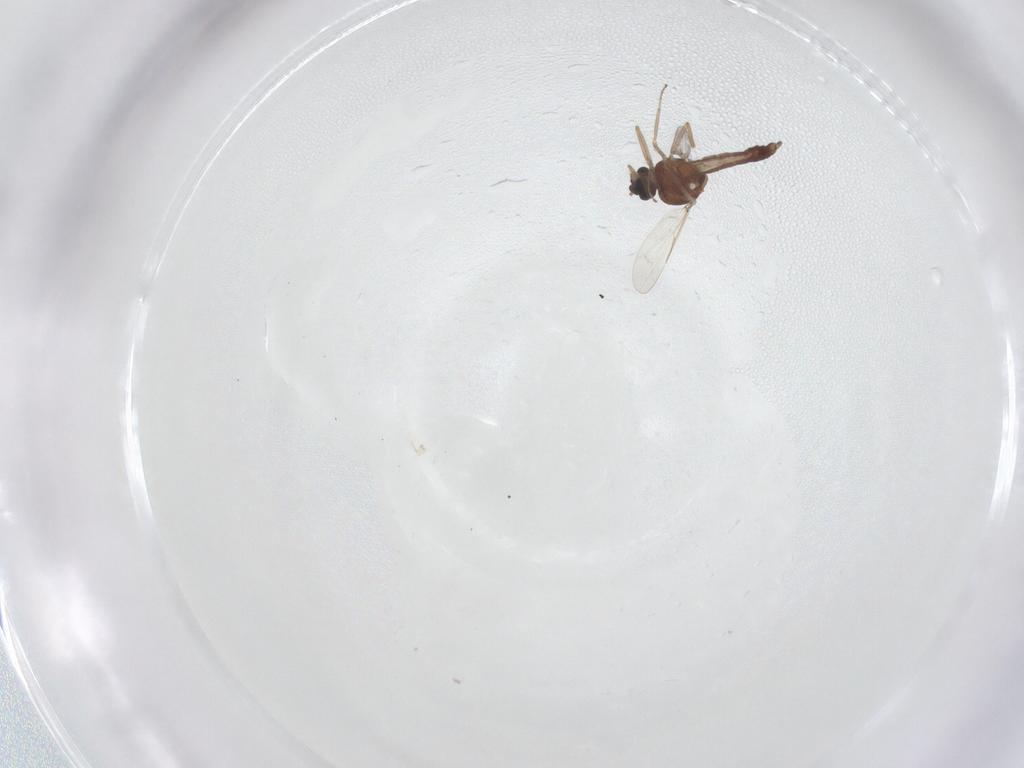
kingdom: Animalia
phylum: Arthropoda
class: Insecta
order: Diptera
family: Ceratopogonidae
